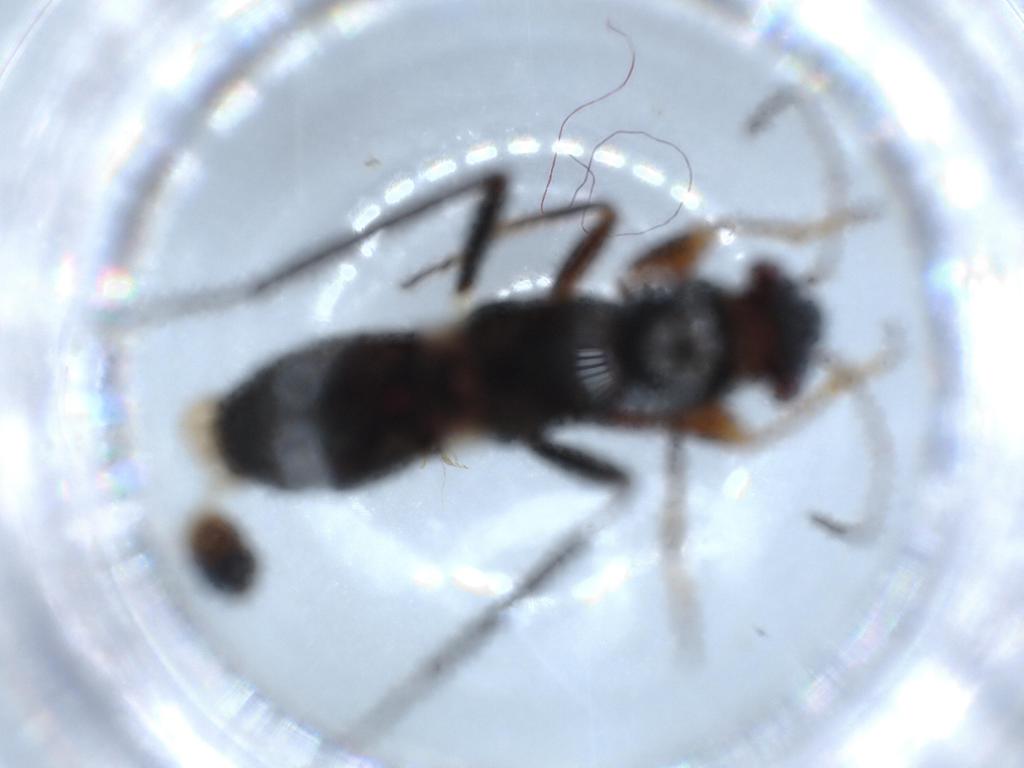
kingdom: Animalia
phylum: Arthropoda
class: Insecta
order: Hemiptera
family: Rhyparochromidae
